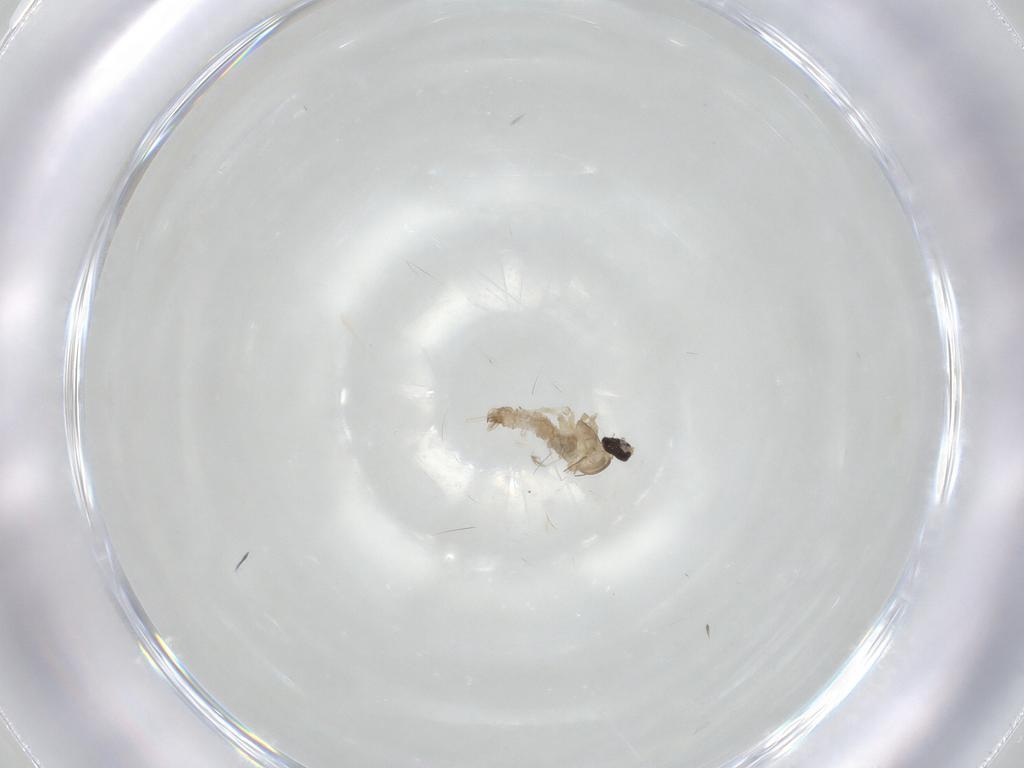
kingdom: Animalia
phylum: Arthropoda
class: Insecta
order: Diptera
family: Cecidomyiidae
